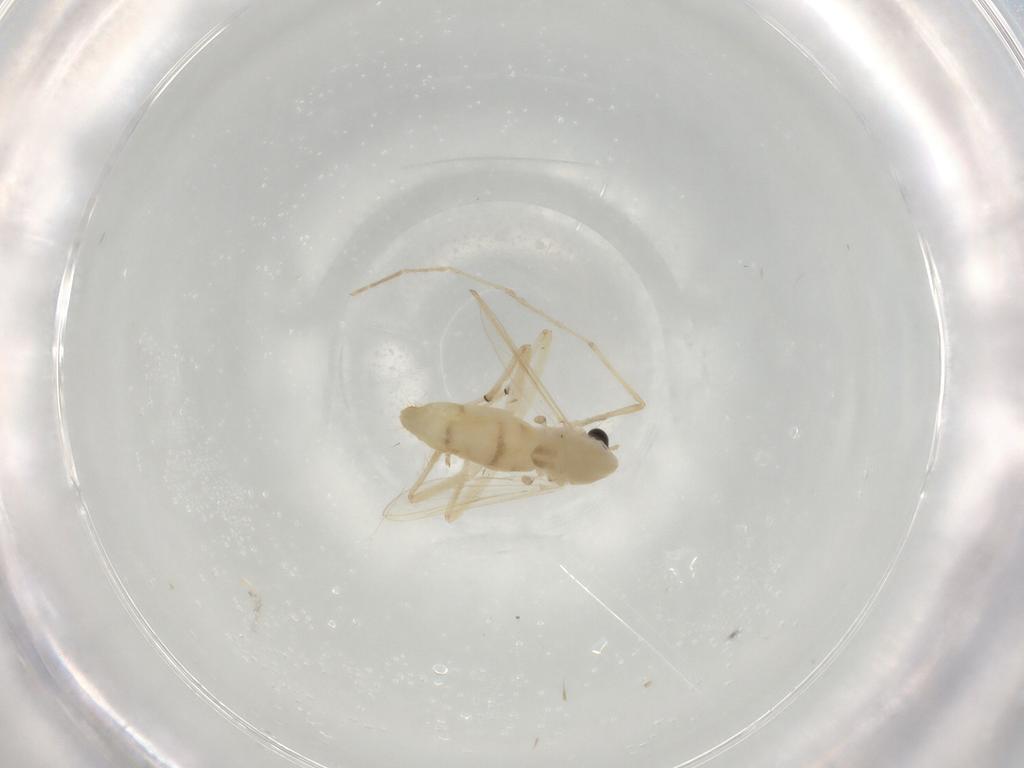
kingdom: Animalia
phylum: Arthropoda
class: Insecta
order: Diptera
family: Chironomidae
